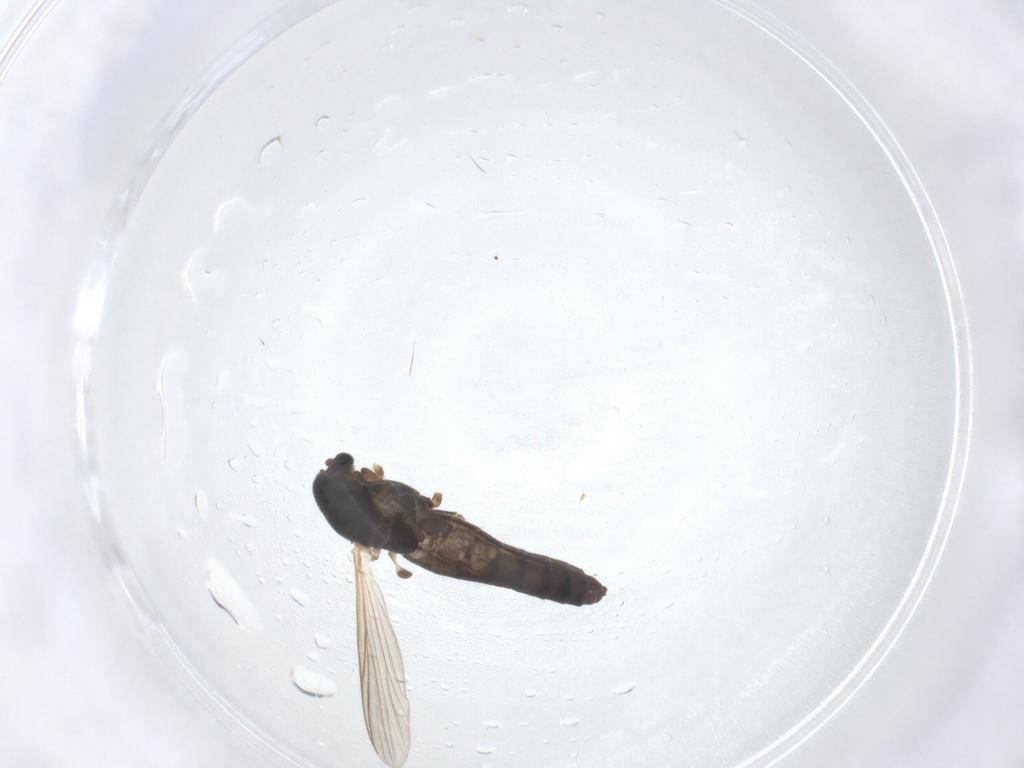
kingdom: Animalia
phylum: Arthropoda
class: Insecta
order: Diptera
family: Chironomidae
